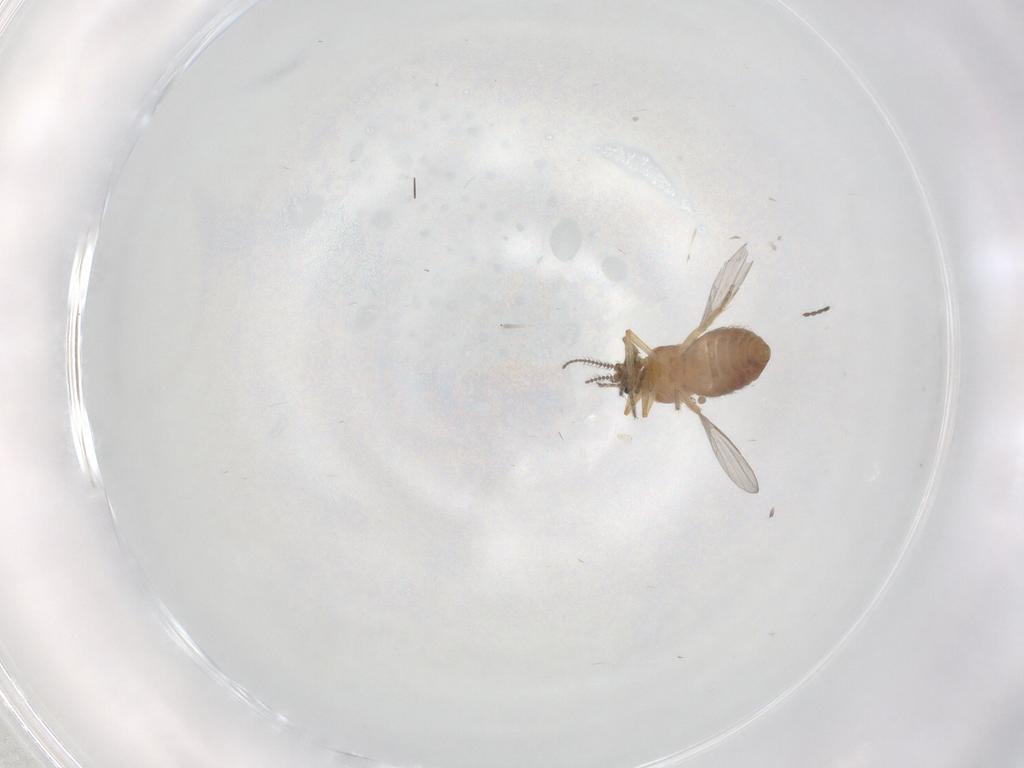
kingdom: Animalia
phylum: Arthropoda
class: Insecta
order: Diptera
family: Ceratopogonidae
